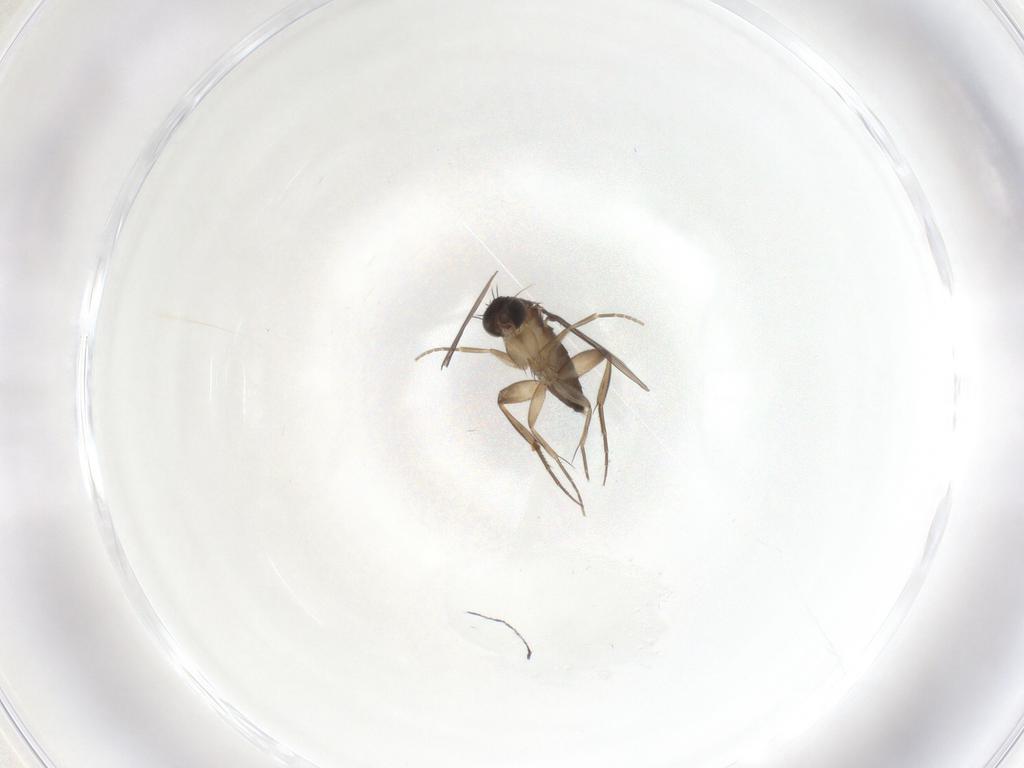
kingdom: Animalia
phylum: Arthropoda
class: Insecta
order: Diptera
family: Phoridae
